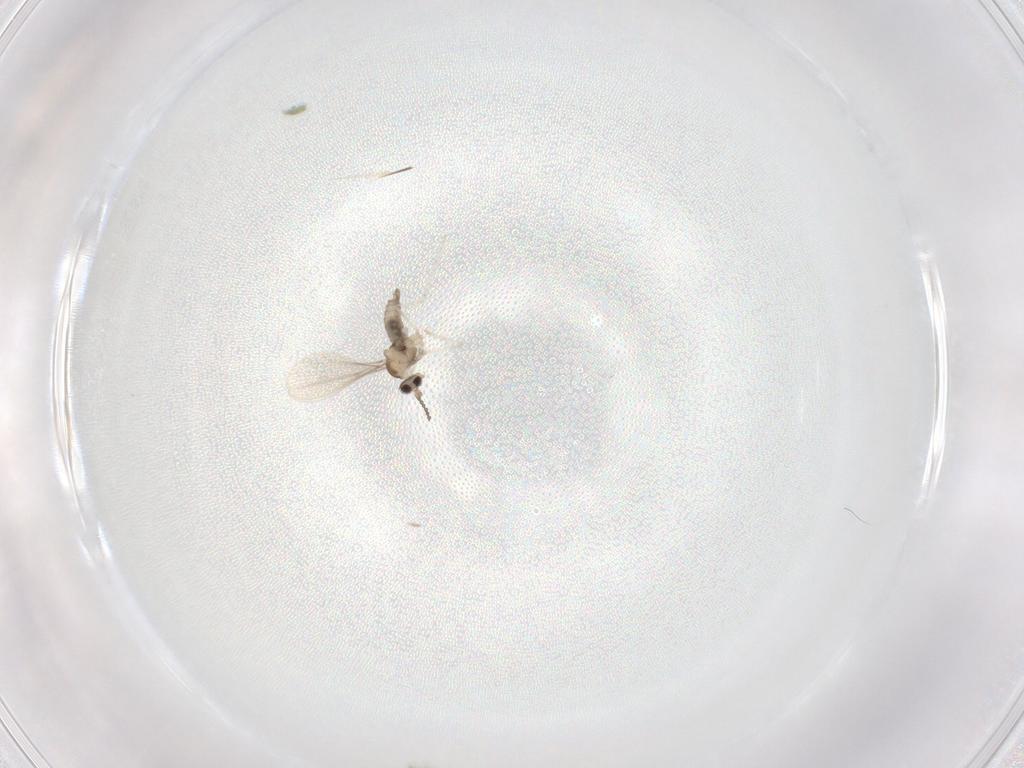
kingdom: Animalia
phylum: Arthropoda
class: Insecta
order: Diptera
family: Cecidomyiidae
